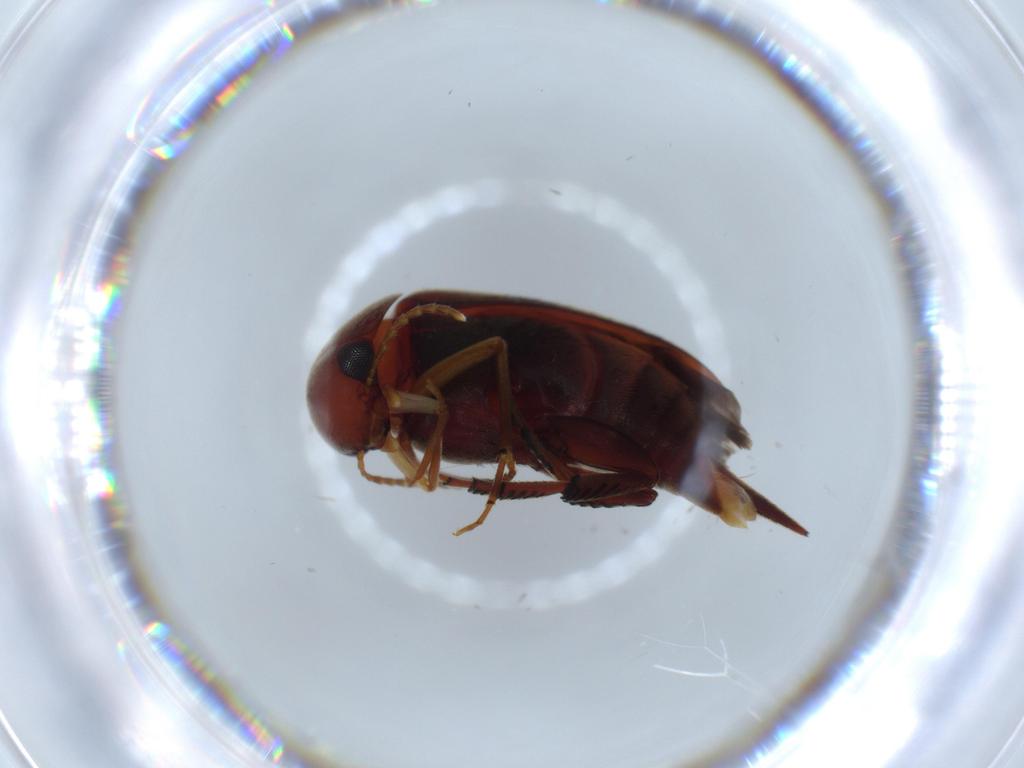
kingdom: Animalia
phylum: Arthropoda
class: Insecta
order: Coleoptera
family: Mordellidae
